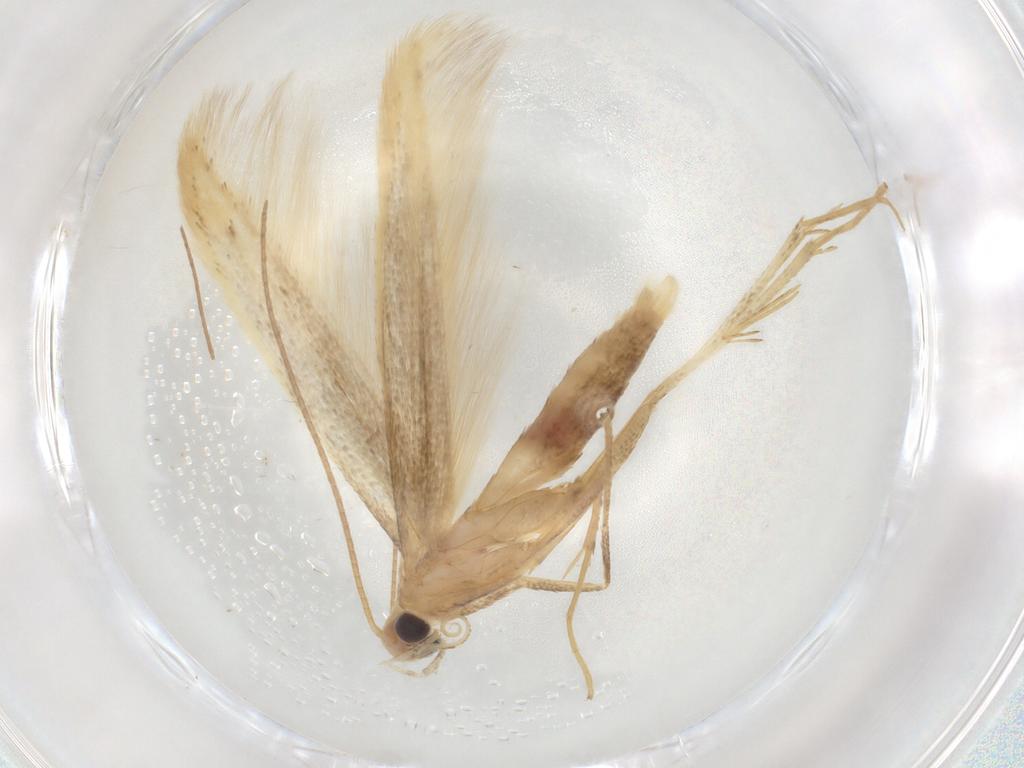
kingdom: Animalia
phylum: Arthropoda
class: Insecta
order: Lepidoptera
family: Batrachedridae
